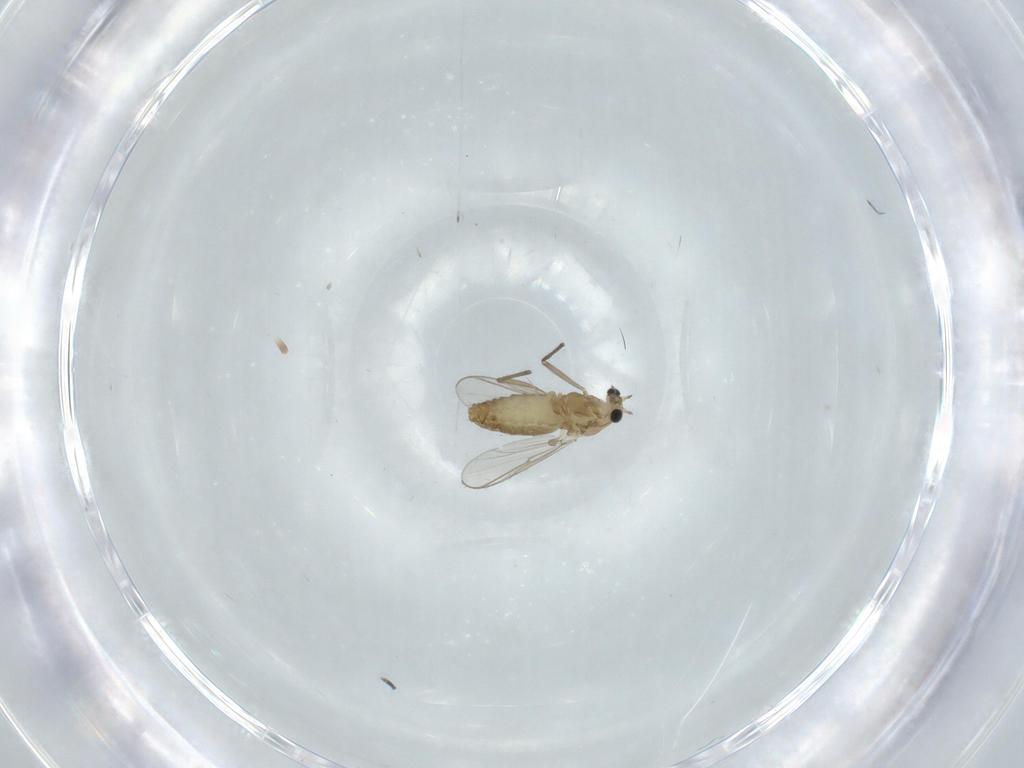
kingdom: Animalia
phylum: Arthropoda
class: Insecta
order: Diptera
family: Chironomidae
